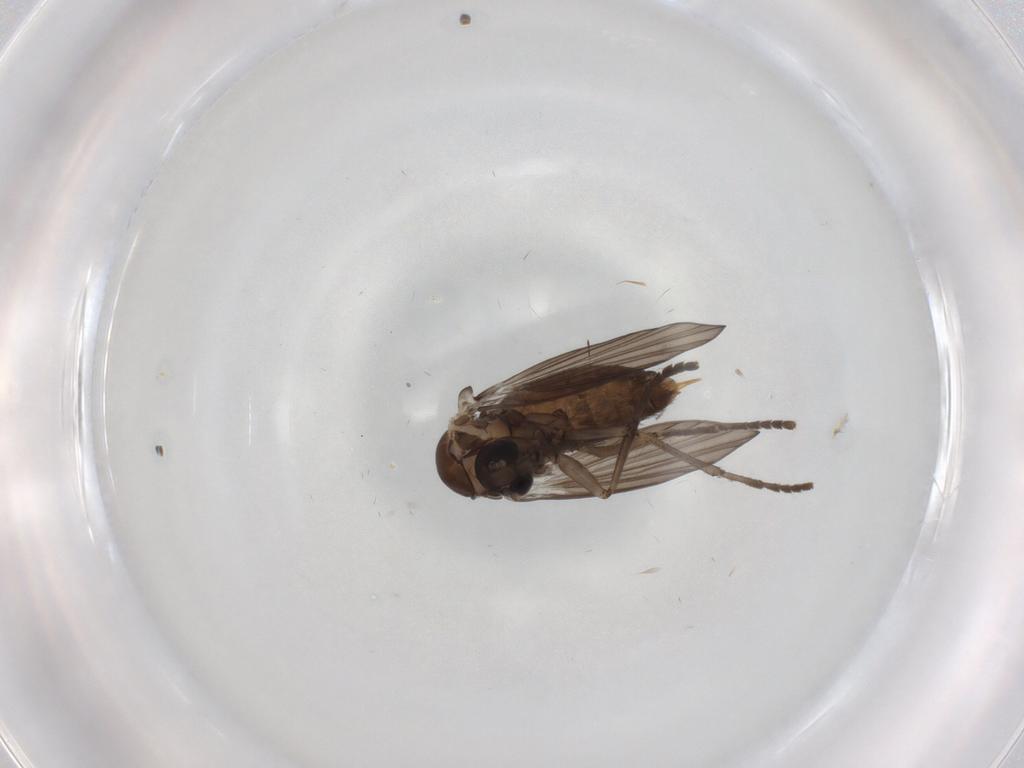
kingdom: Animalia
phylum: Arthropoda
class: Insecta
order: Diptera
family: Psychodidae
